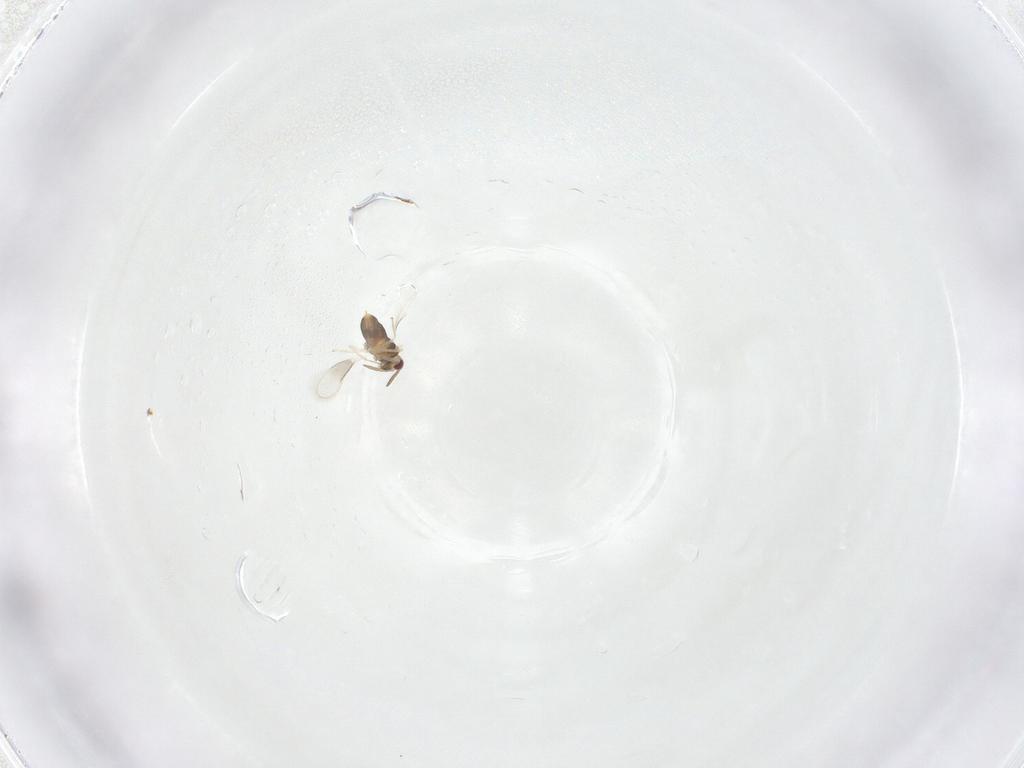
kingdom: Animalia
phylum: Arthropoda
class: Insecta
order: Hymenoptera
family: Aphelinidae
